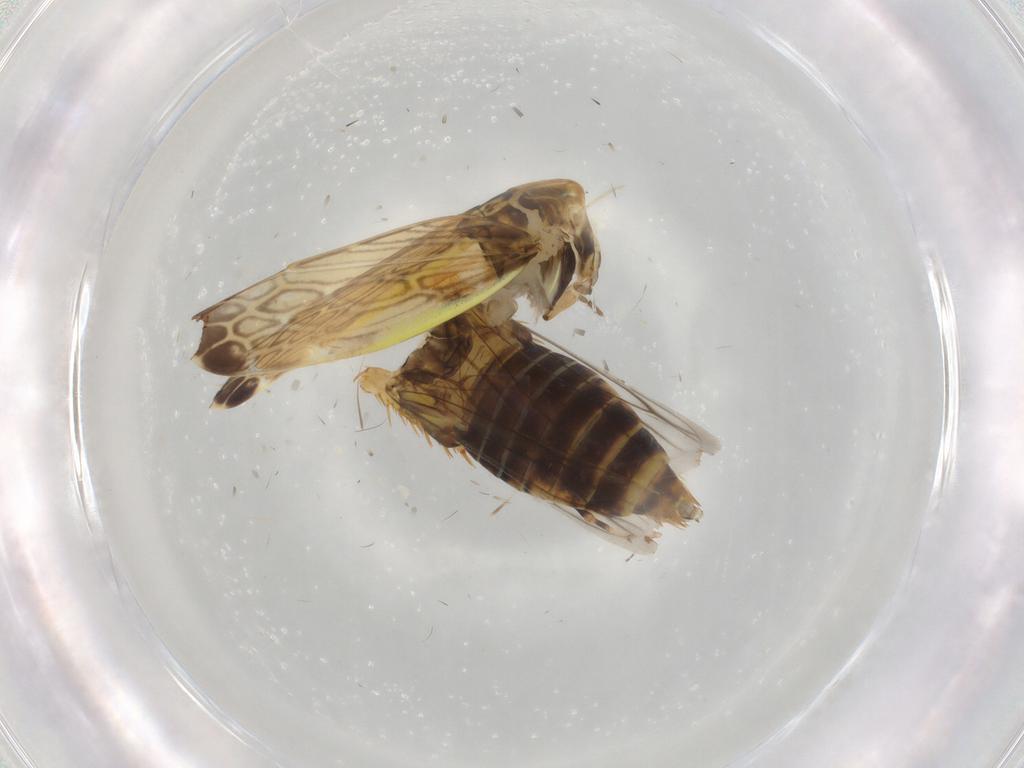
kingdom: Animalia
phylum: Arthropoda
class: Insecta
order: Hemiptera
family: Cicadellidae
